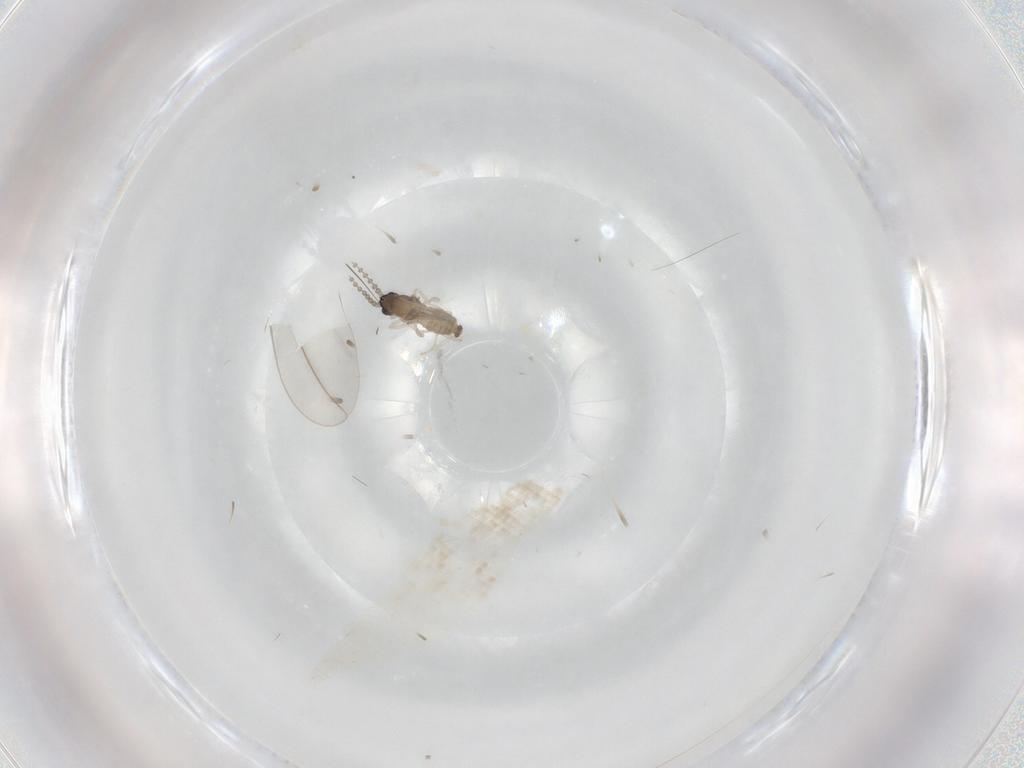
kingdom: Animalia
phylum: Arthropoda
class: Insecta
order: Diptera
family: Cecidomyiidae
